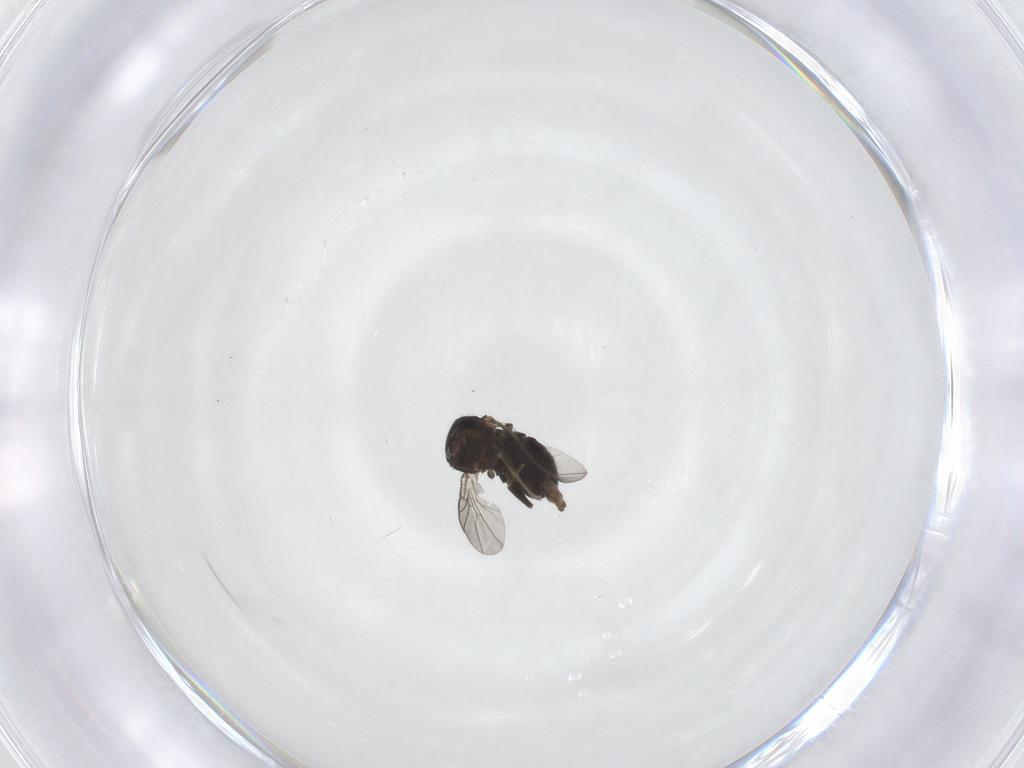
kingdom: Animalia
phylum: Arthropoda
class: Insecta
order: Diptera
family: Cryptochetidae
